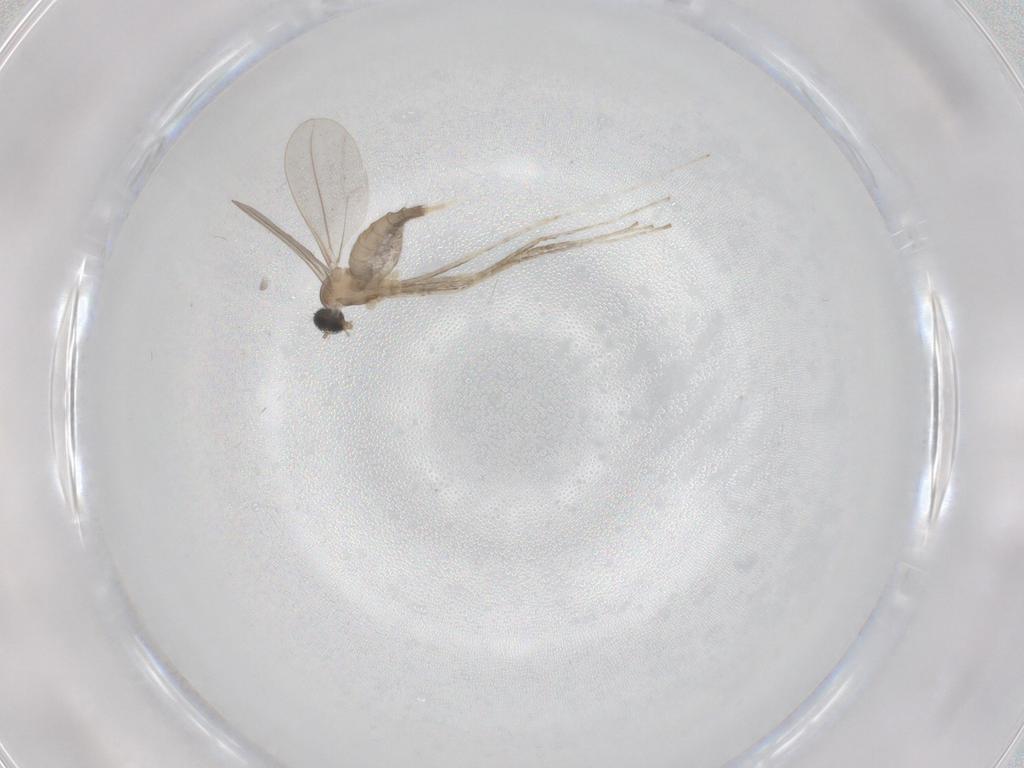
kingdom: Animalia
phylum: Arthropoda
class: Insecta
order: Diptera
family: Cecidomyiidae
